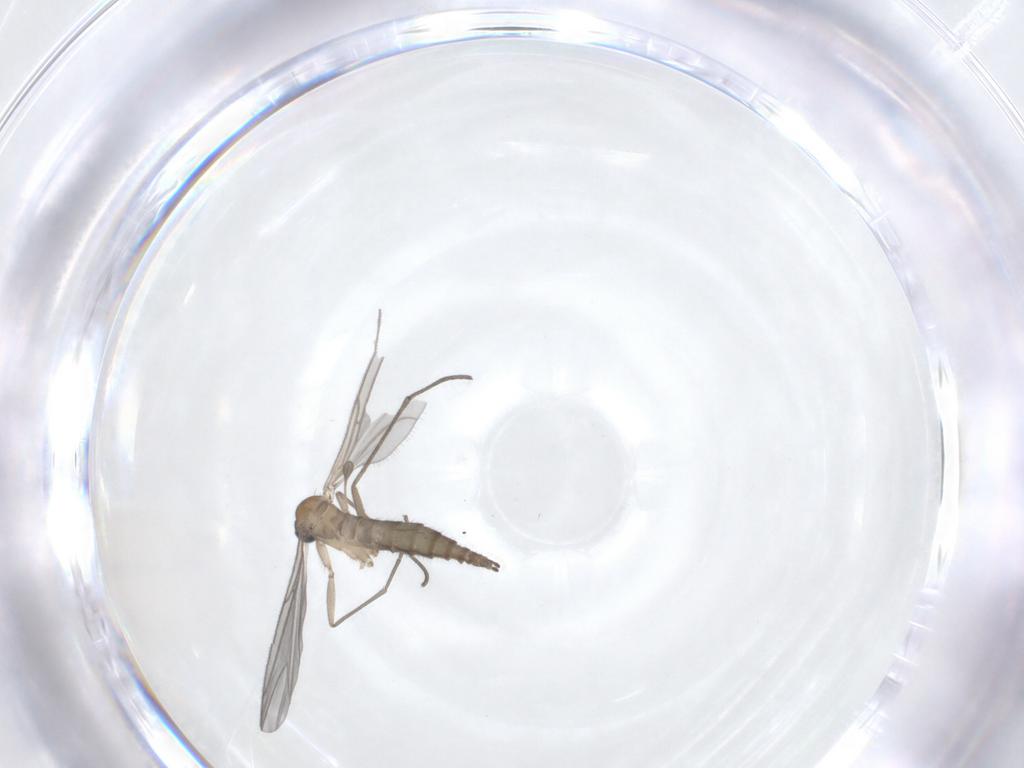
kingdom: Animalia
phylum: Arthropoda
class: Insecta
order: Diptera
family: Sciaridae
